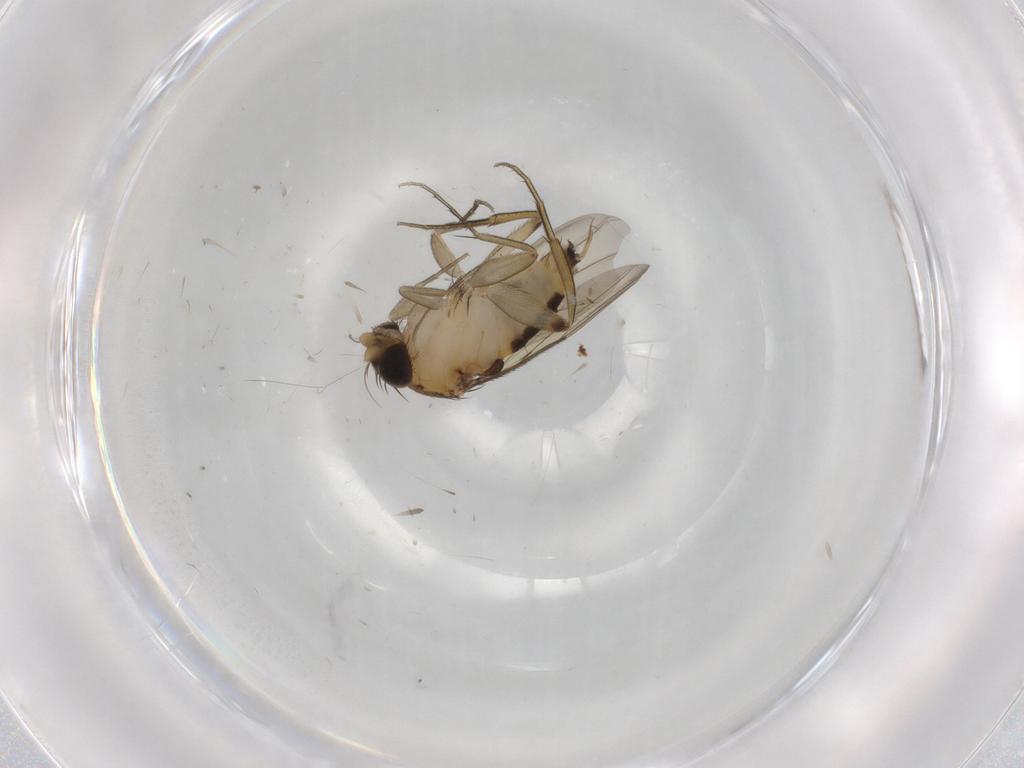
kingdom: Animalia
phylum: Arthropoda
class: Insecta
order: Diptera
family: Phoridae
